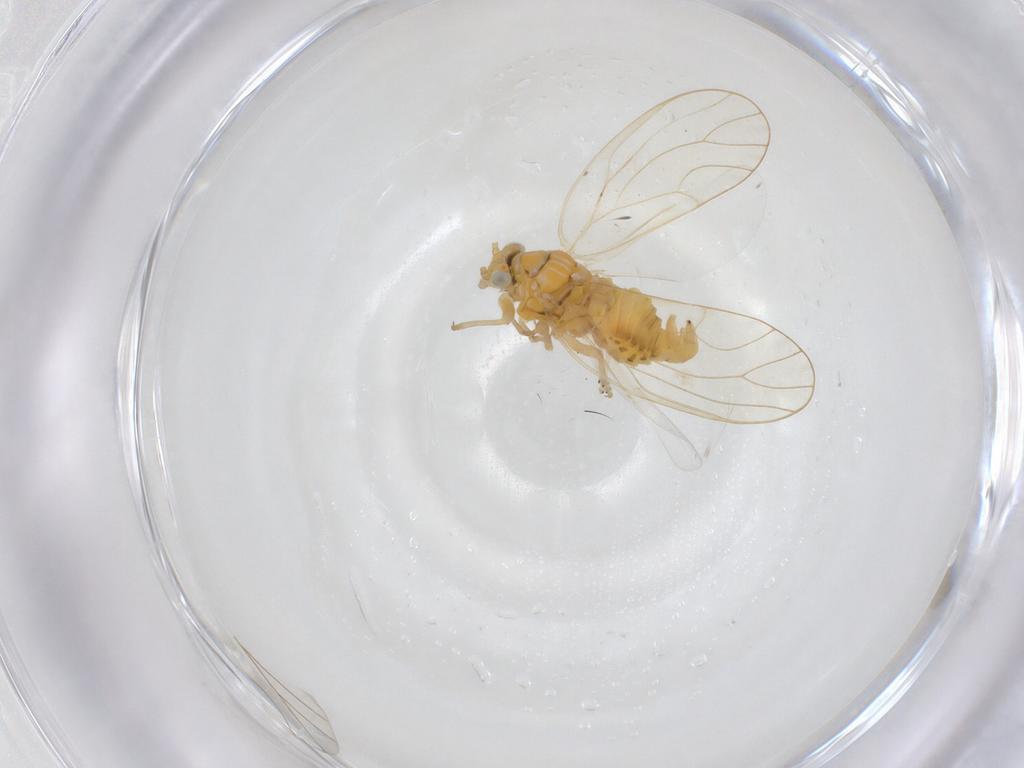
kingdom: Animalia
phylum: Arthropoda
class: Insecta
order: Hemiptera
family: Psyllidae
